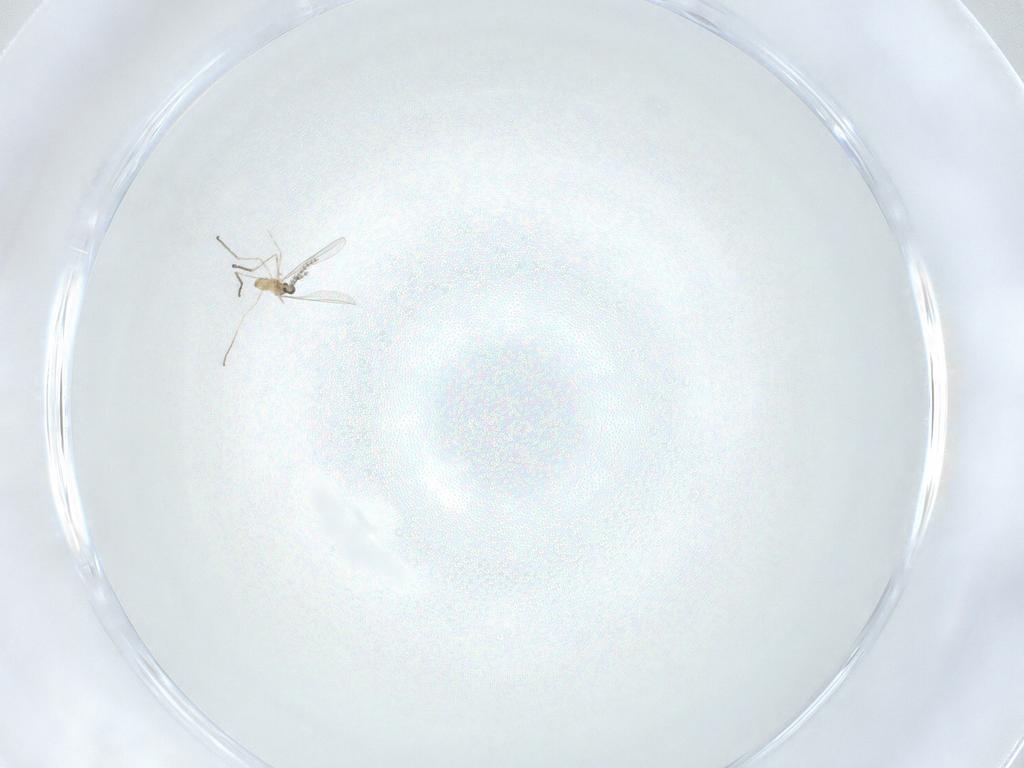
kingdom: Animalia
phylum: Arthropoda
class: Insecta
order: Diptera
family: Cecidomyiidae
